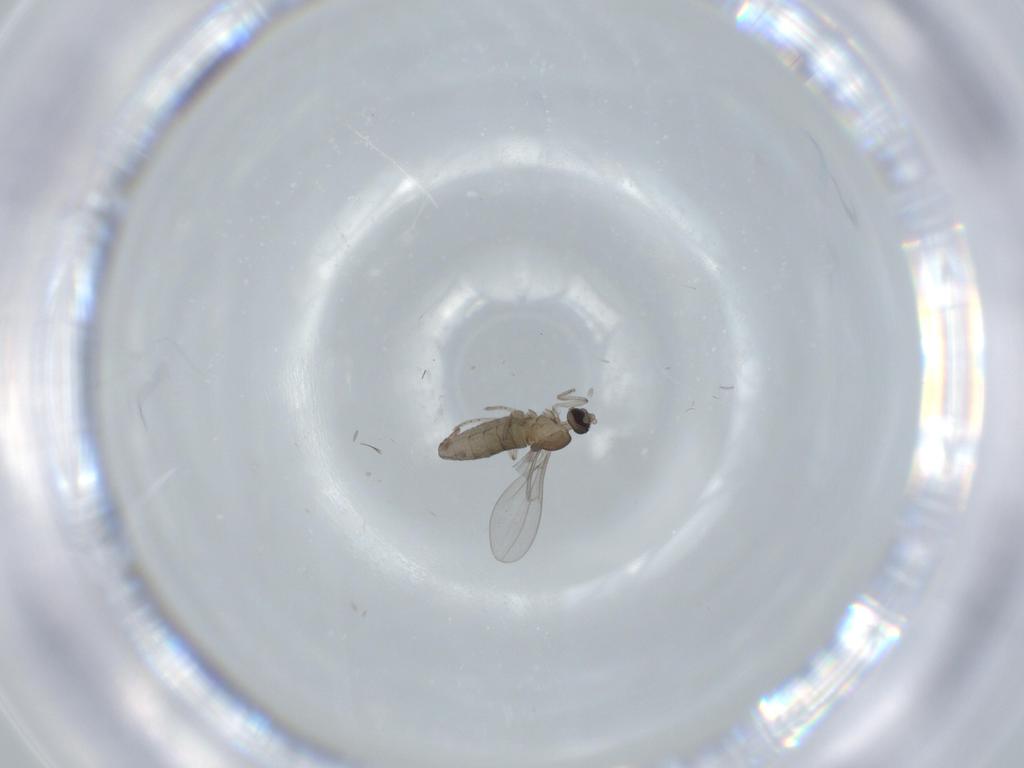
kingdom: Animalia
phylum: Arthropoda
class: Insecta
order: Diptera
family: Cecidomyiidae
